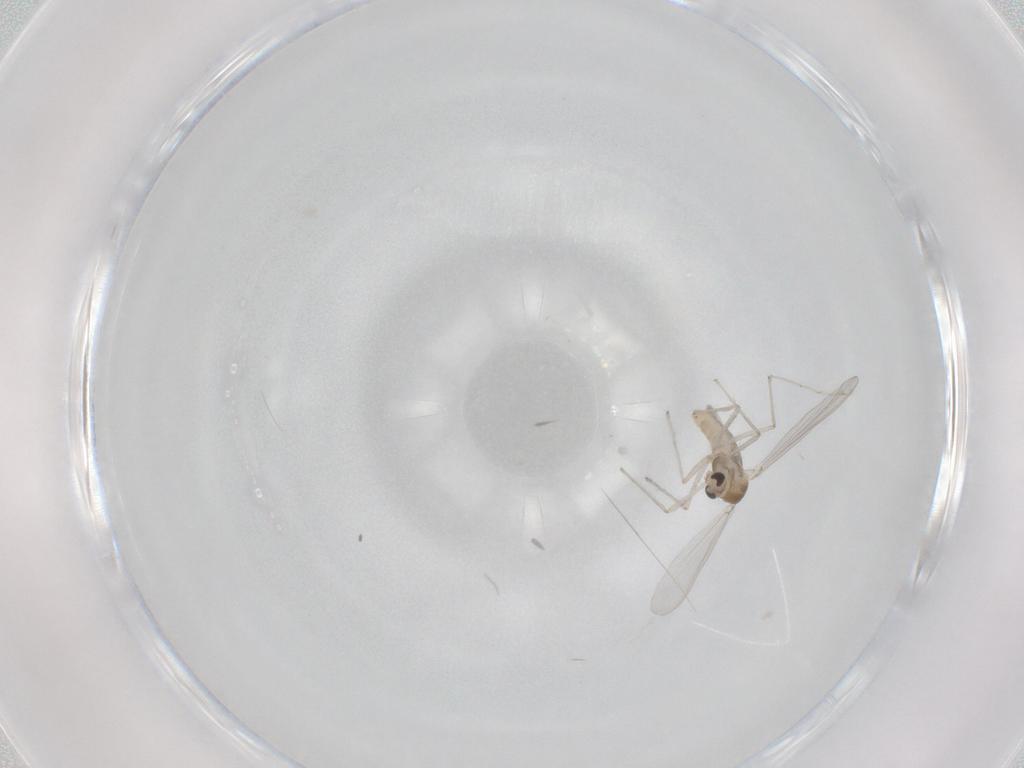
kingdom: Animalia
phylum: Arthropoda
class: Insecta
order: Diptera
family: Chironomidae
